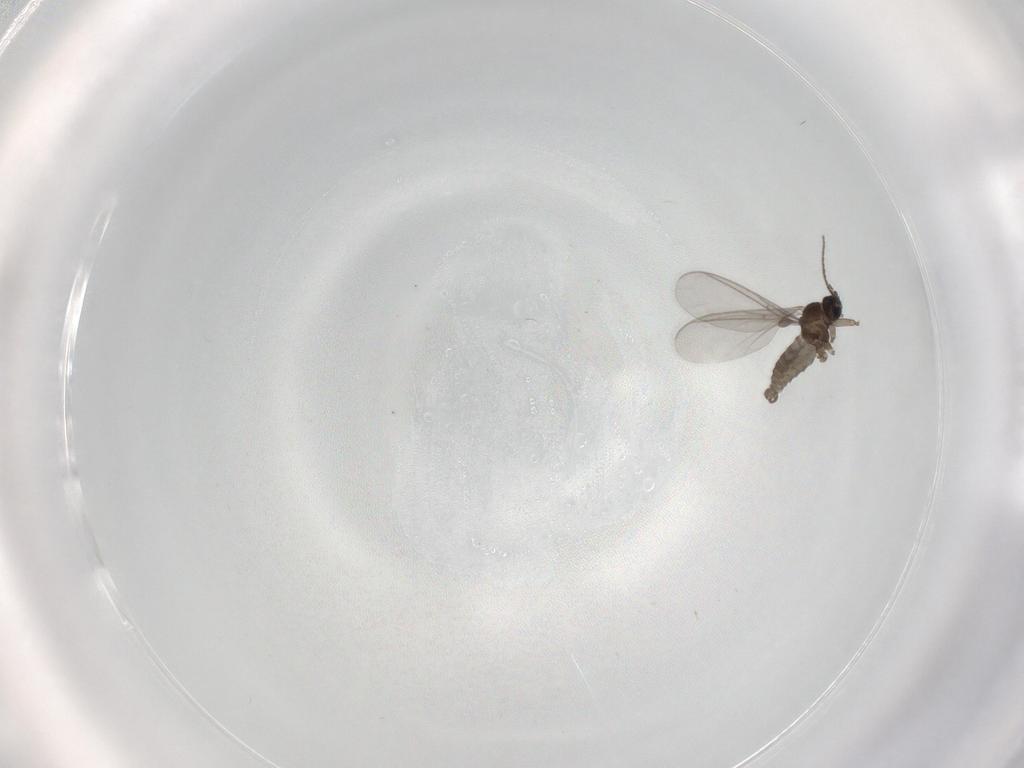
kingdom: Animalia
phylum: Arthropoda
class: Insecta
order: Diptera
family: Sciaridae
